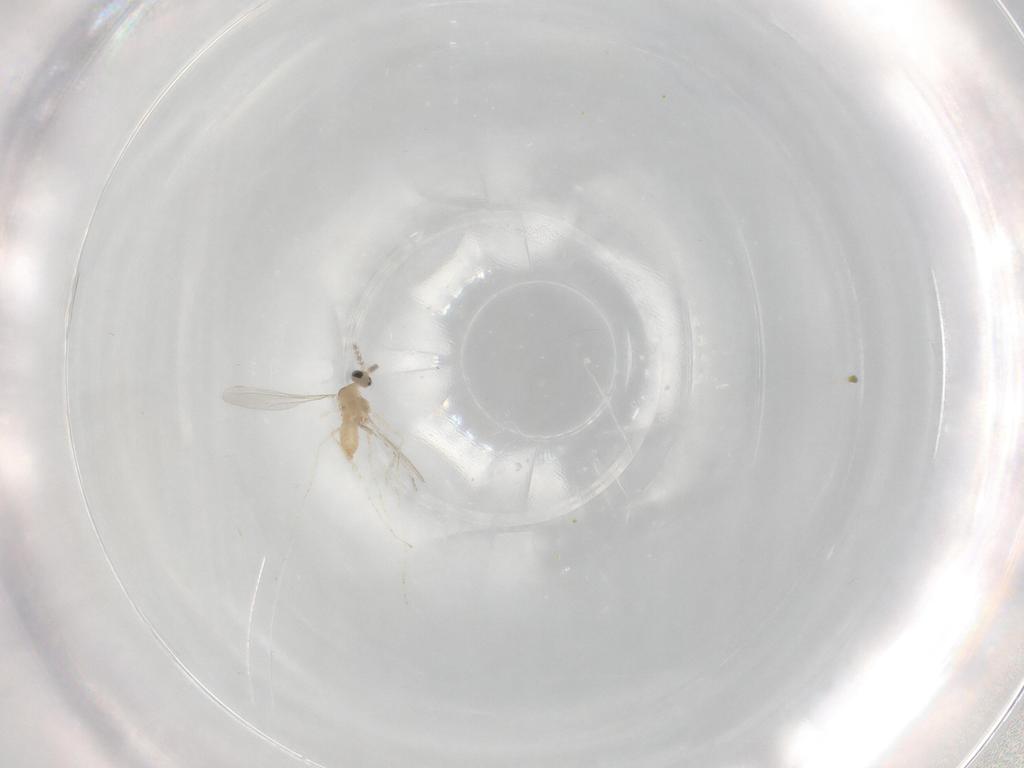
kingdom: Animalia
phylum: Arthropoda
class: Insecta
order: Diptera
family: Cecidomyiidae
